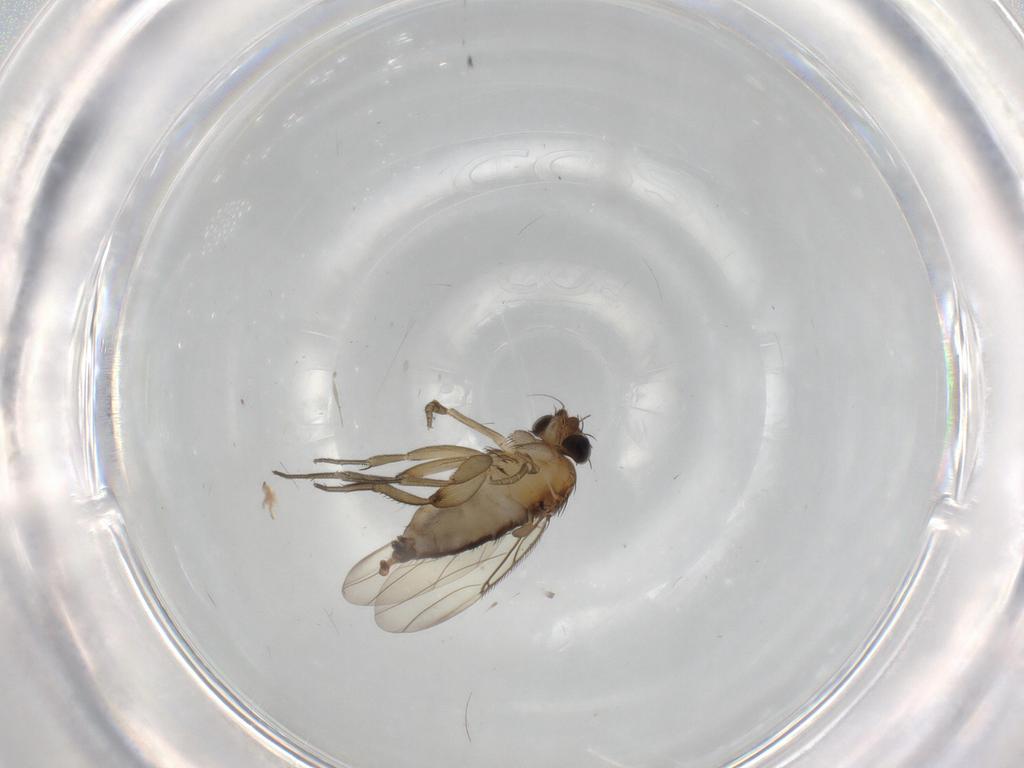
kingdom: Animalia
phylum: Arthropoda
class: Insecta
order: Diptera
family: Phoridae
